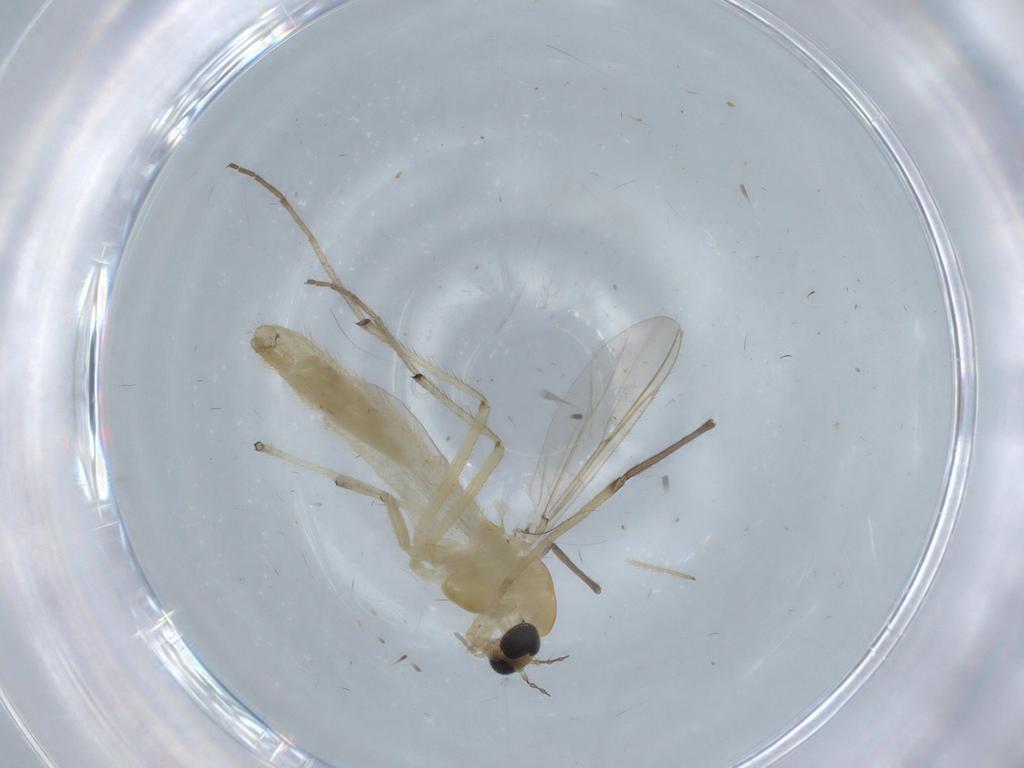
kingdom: Animalia
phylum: Arthropoda
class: Insecta
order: Diptera
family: Chironomidae
